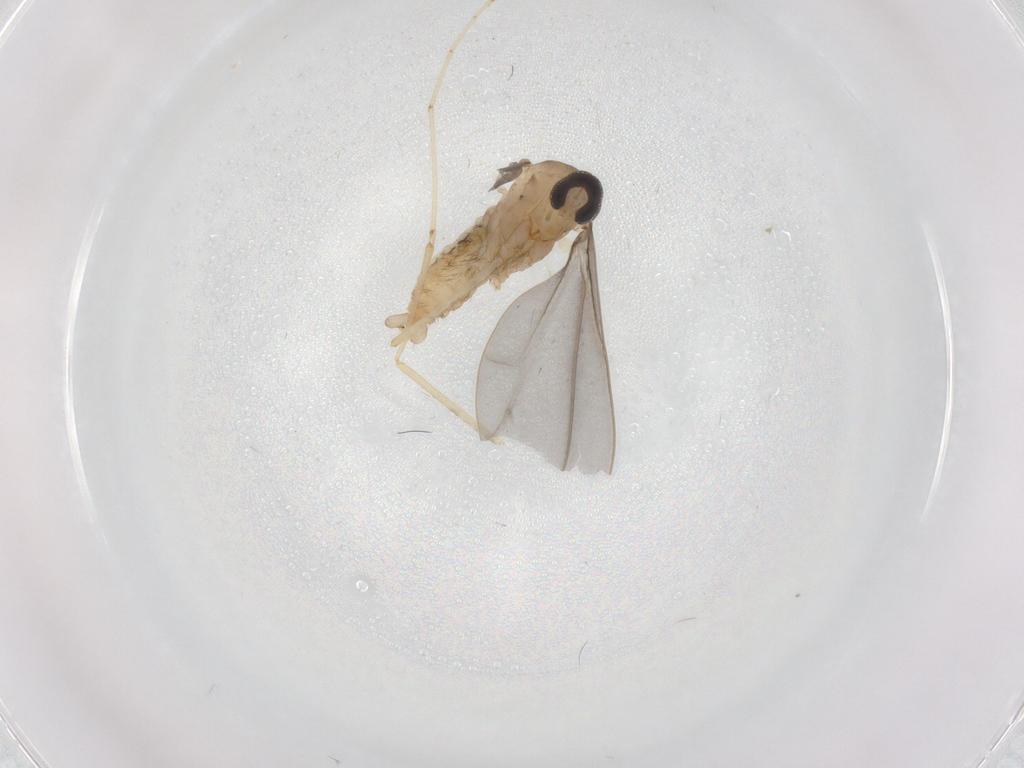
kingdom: Animalia
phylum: Arthropoda
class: Insecta
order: Diptera
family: Cecidomyiidae
